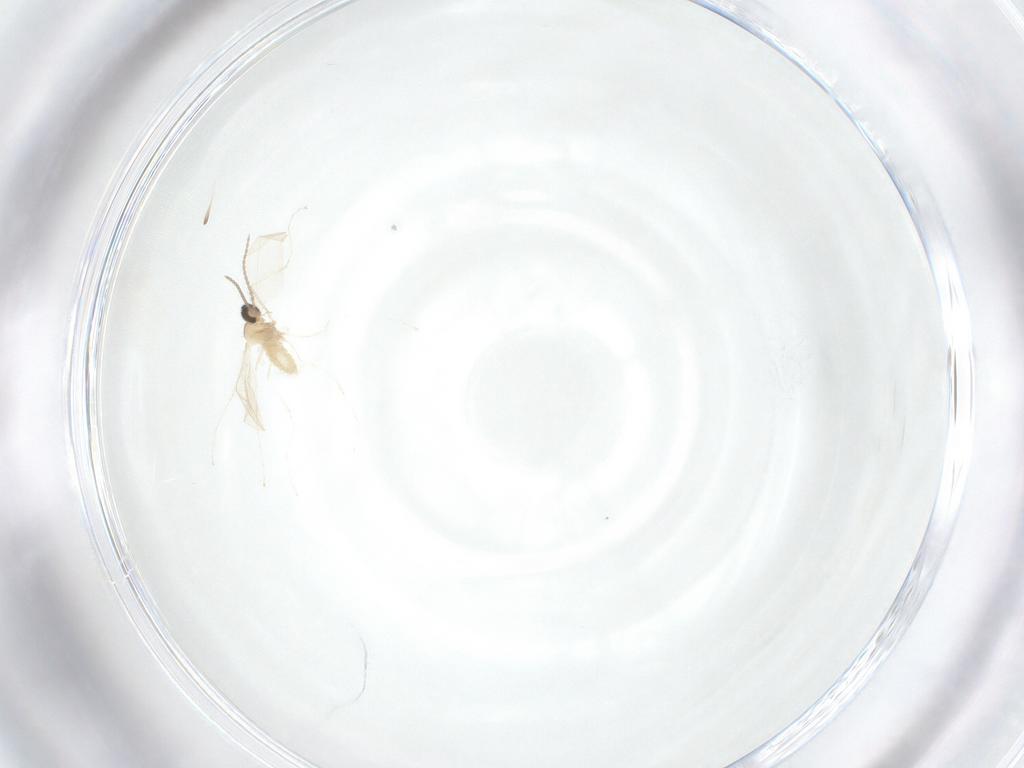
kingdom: Animalia
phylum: Arthropoda
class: Insecta
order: Diptera
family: Cecidomyiidae
